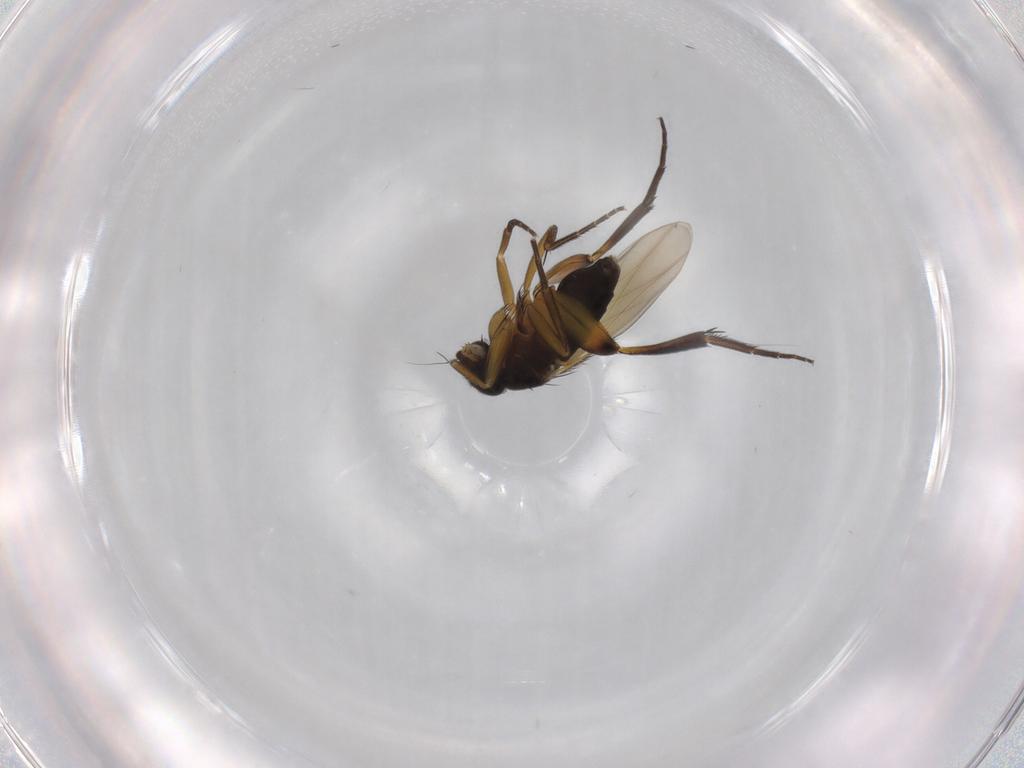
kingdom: Animalia
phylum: Arthropoda
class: Insecta
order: Diptera
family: Phoridae
